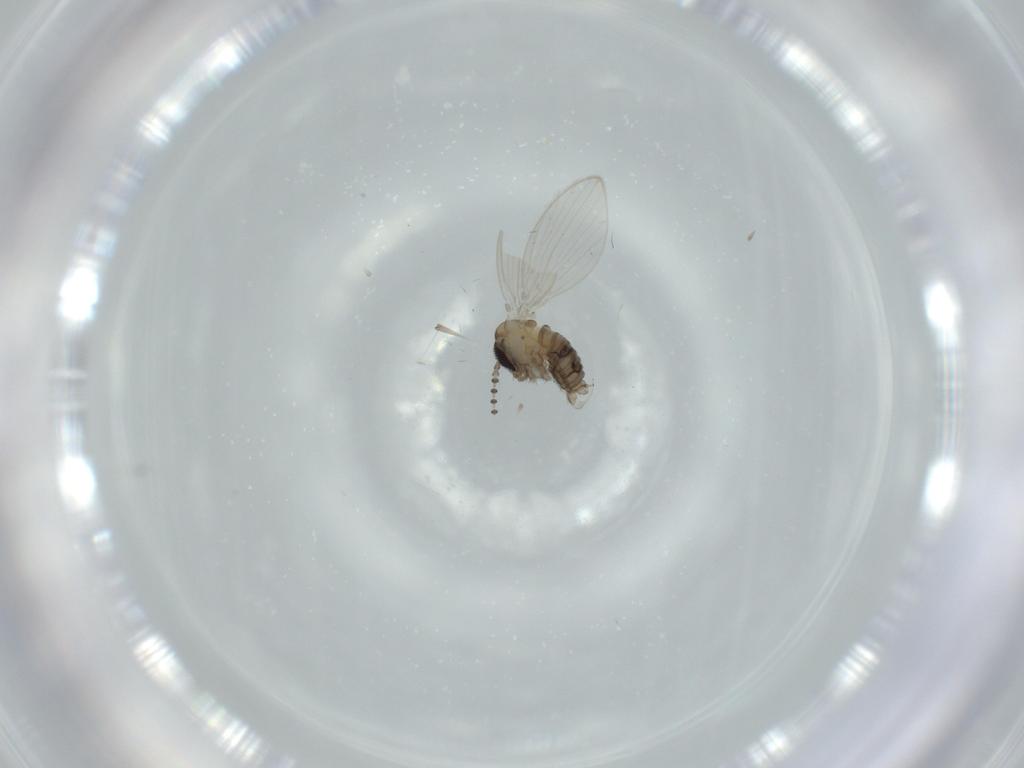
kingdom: Animalia
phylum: Arthropoda
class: Insecta
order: Diptera
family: Psychodidae
